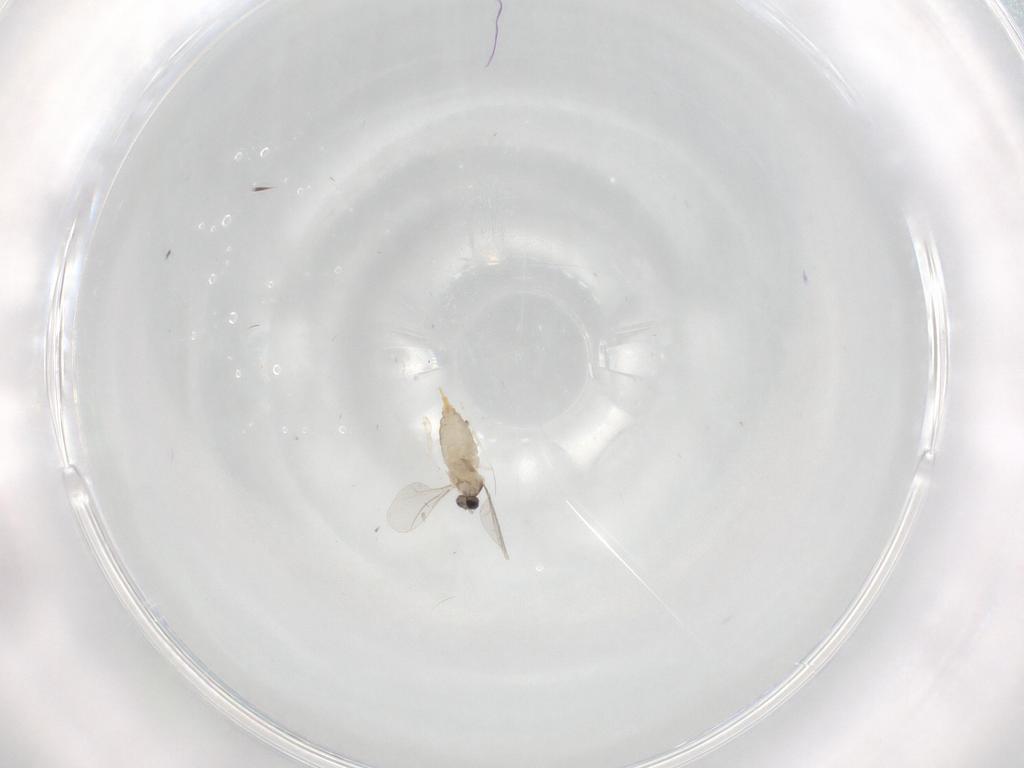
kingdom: Animalia
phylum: Arthropoda
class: Insecta
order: Diptera
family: Cecidomyiidae
